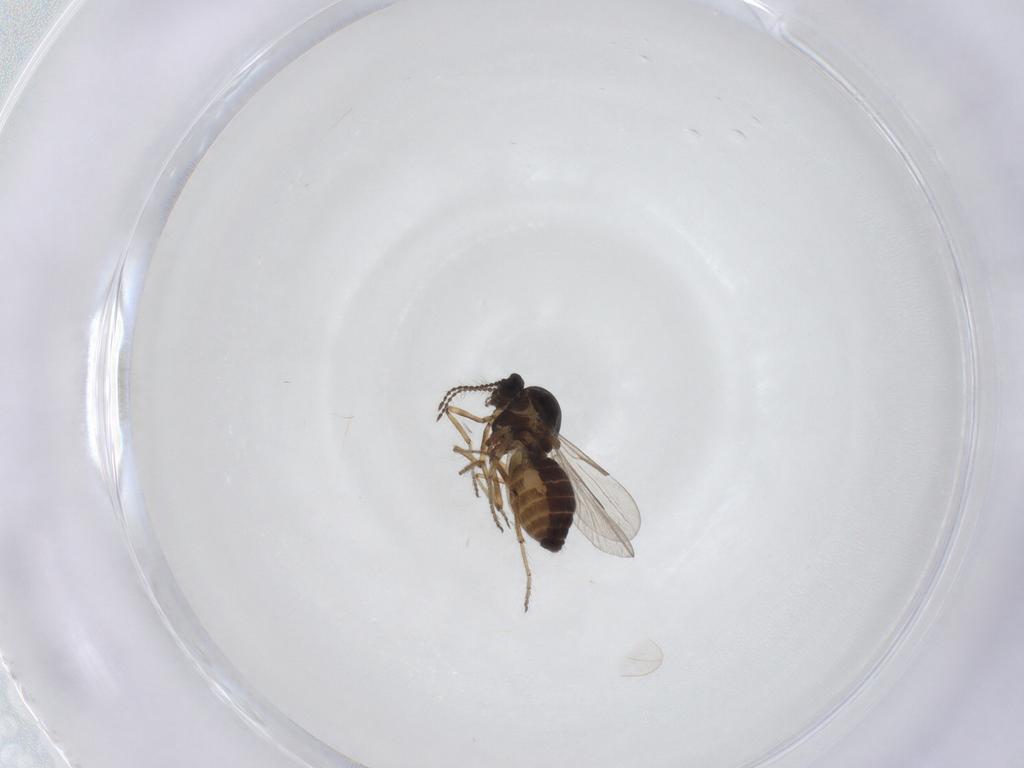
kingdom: Animalia
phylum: Arthropoda
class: Insecta
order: Diptera
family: Ceratopogonidae
